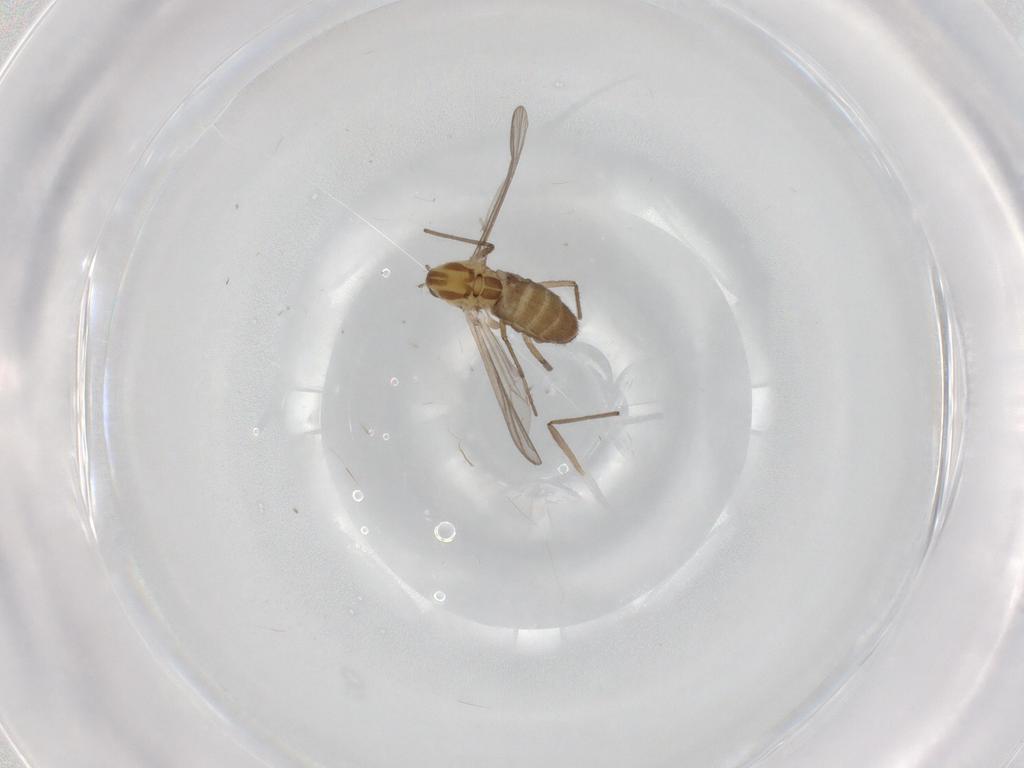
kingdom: Animalia
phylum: Arthropoda
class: Insecta
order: Diptera
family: Chironomidae
